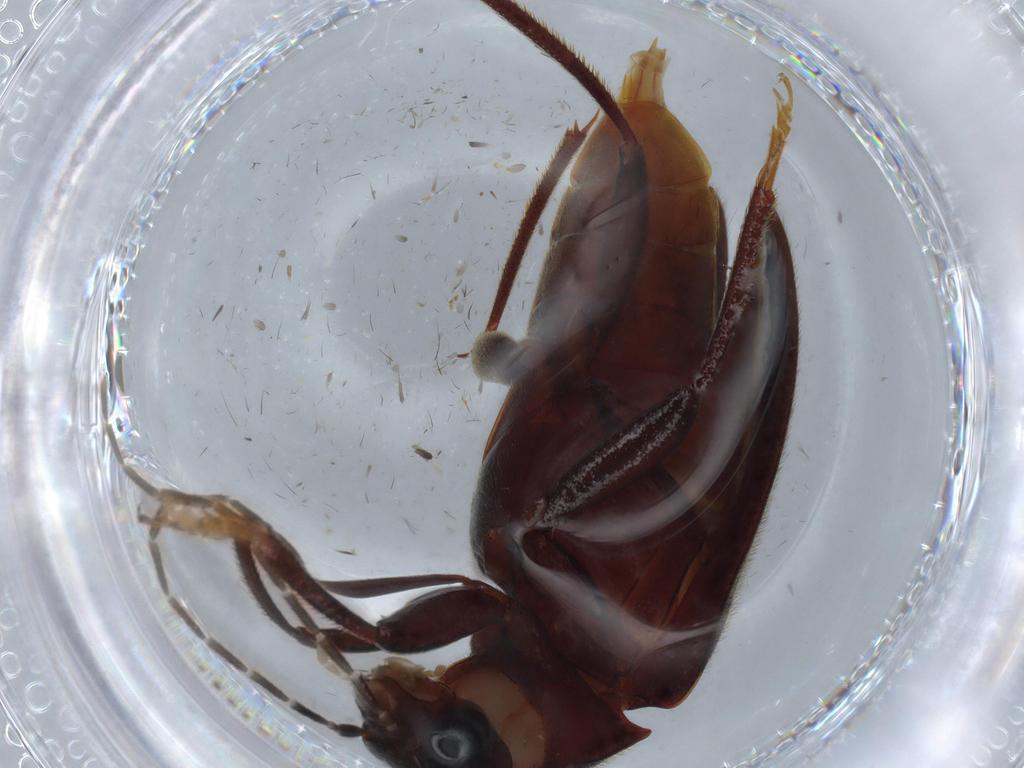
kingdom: Animalia
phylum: Arthropoda
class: Insecta
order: Coleoptera
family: Ptilodactylidae
